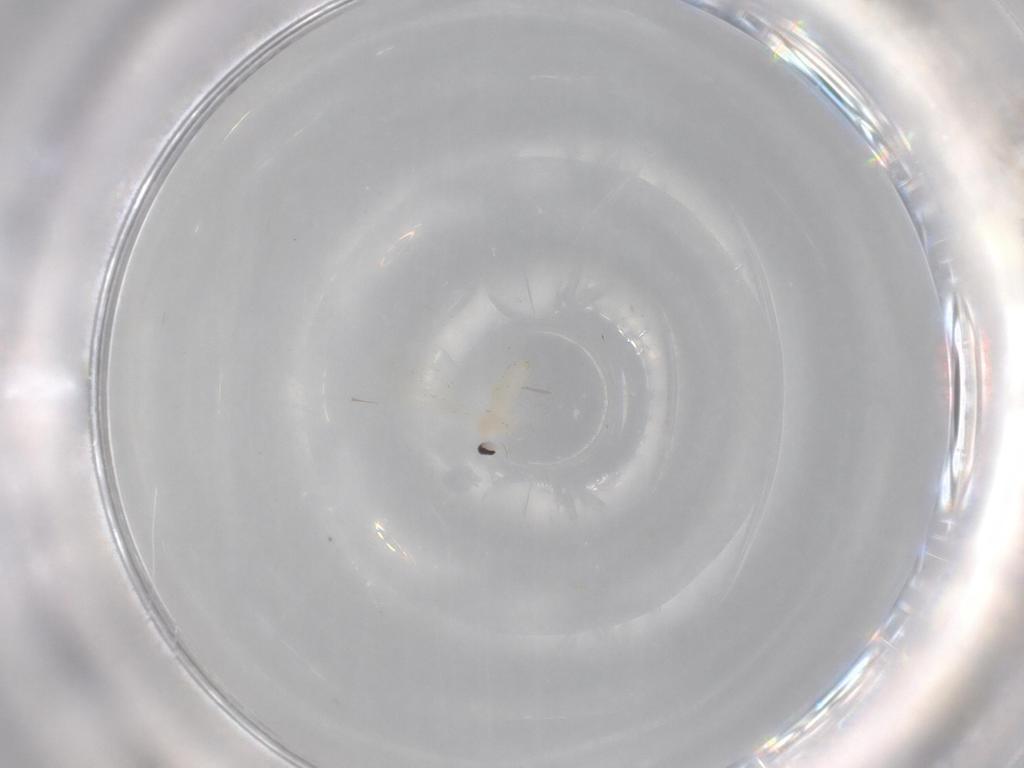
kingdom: Animalia
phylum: Arthropoda
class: Insecta
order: Diptera
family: Cecidomyiidae
